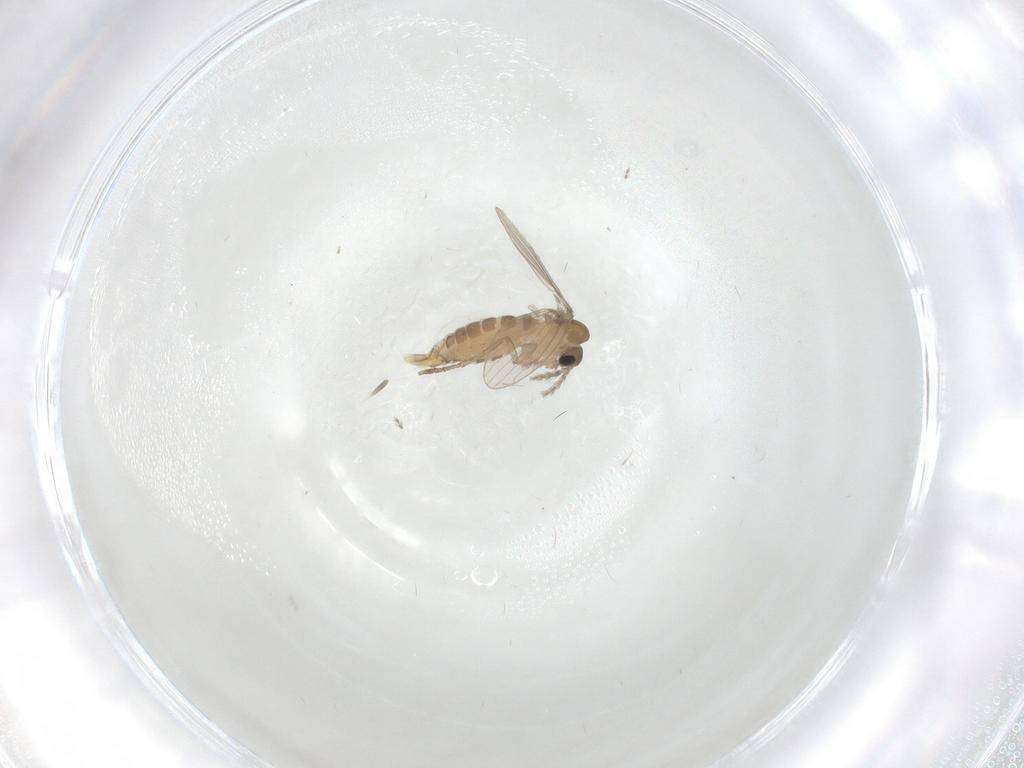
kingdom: Animalia
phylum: Arthropoda
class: Insecta
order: Diptera
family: Psychodidae
